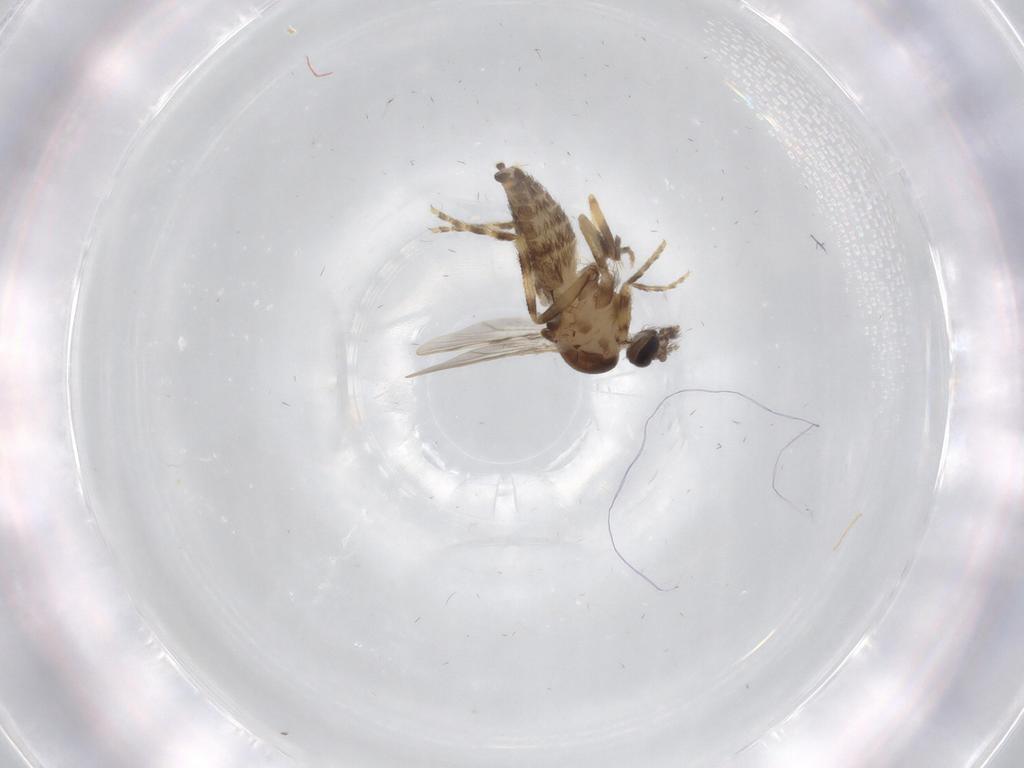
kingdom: Animalia
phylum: Arthropoda
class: Insecta
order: Diptera
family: Ceratopogonidae
